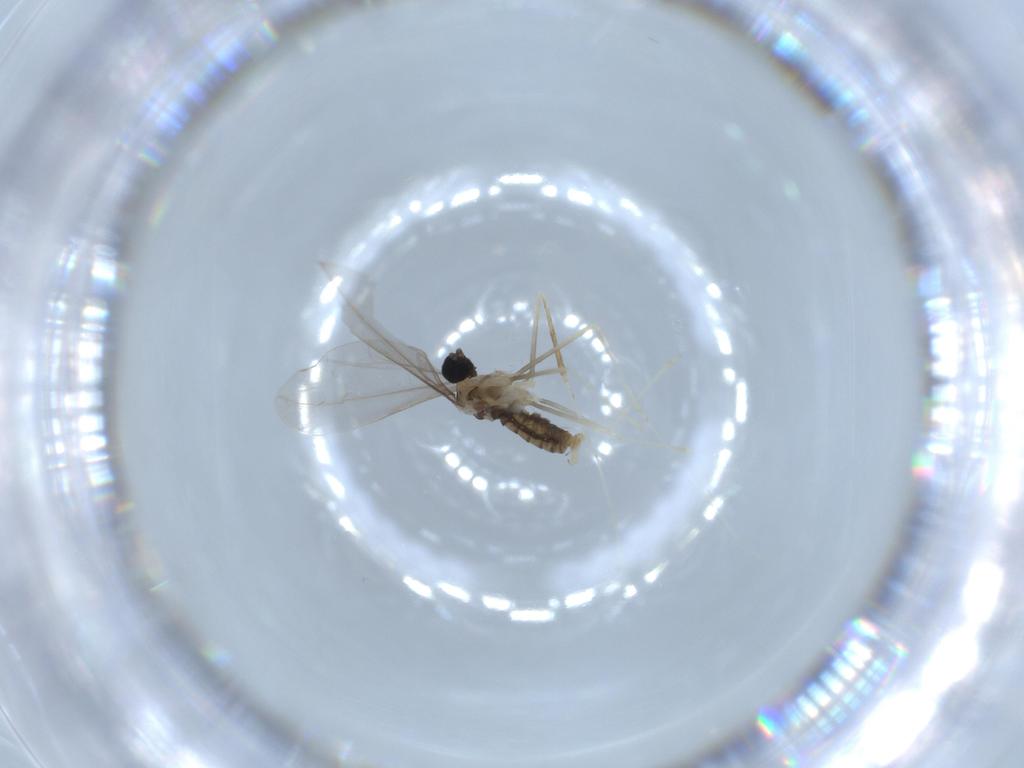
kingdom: Animalia
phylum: Arthropoda
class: Insecta
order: Diptera
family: Cecidomyiidae
